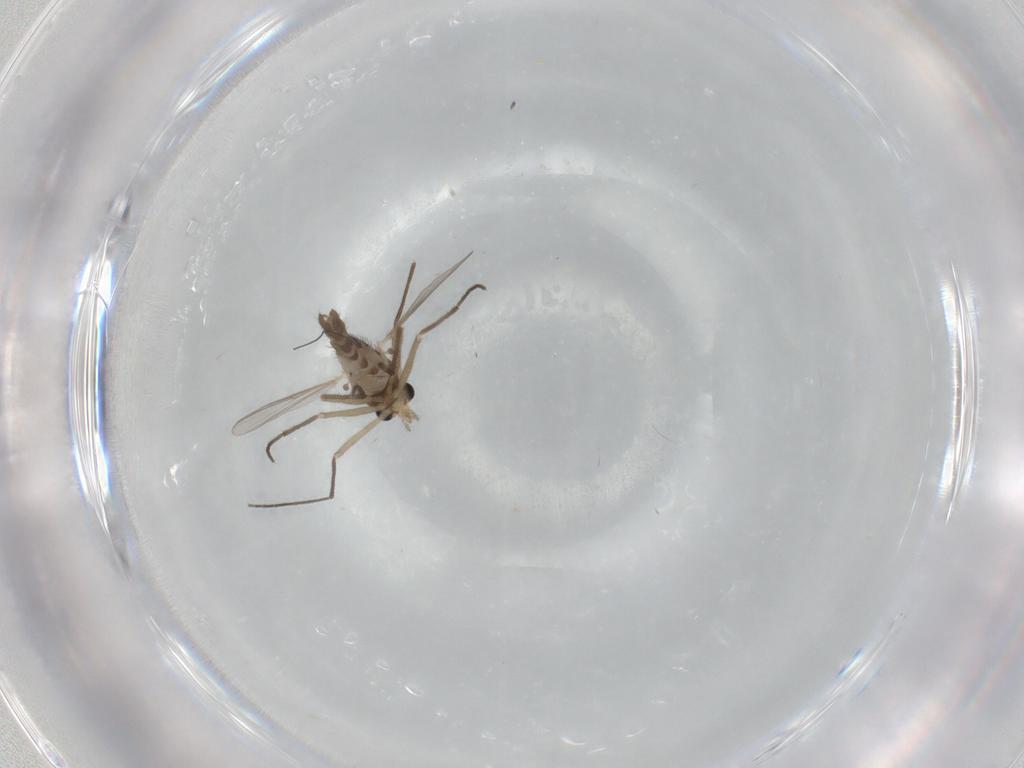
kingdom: Animalia
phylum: Arthropoda
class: Insecta
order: Diptera
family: Chironomidae
